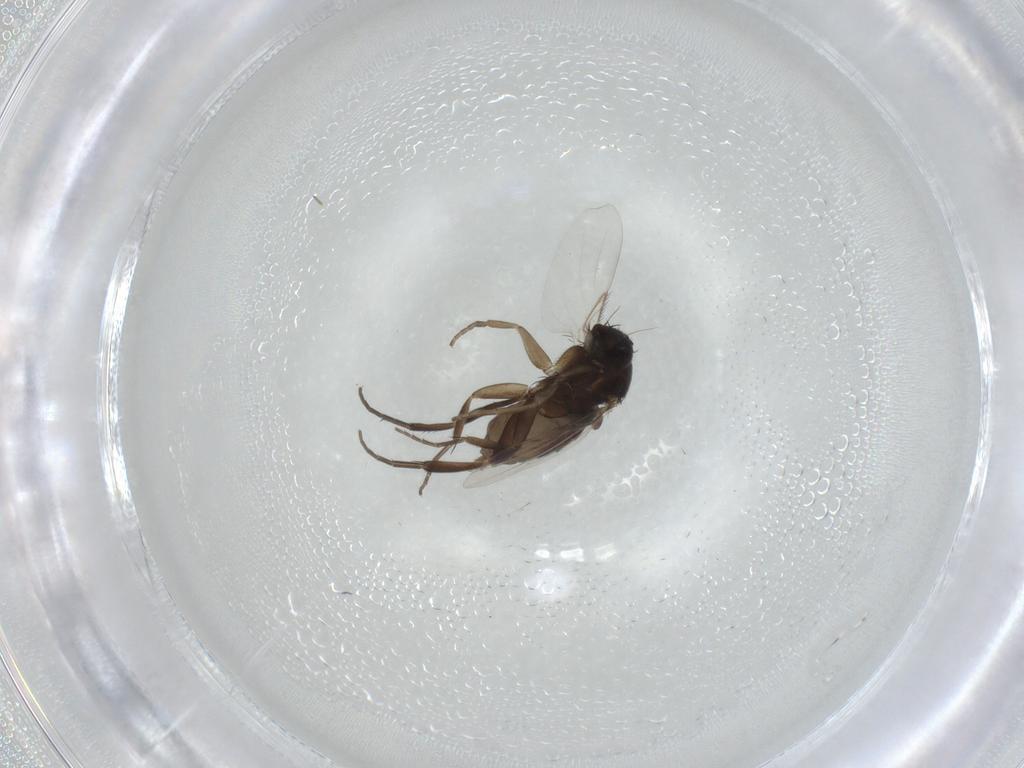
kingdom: Animalia
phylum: Arthropoda
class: Insecta
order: Diptera
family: Phoridae
